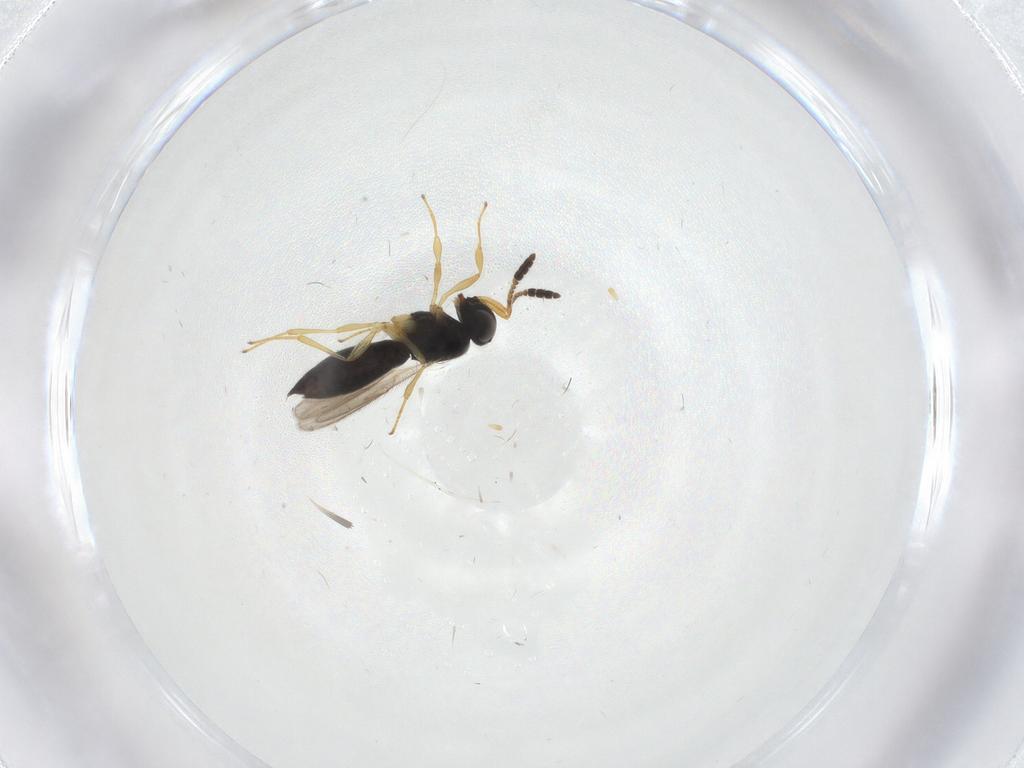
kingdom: Animalia
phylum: Arthropoda
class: Insecta
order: Hymenoptera
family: Scelionidae
